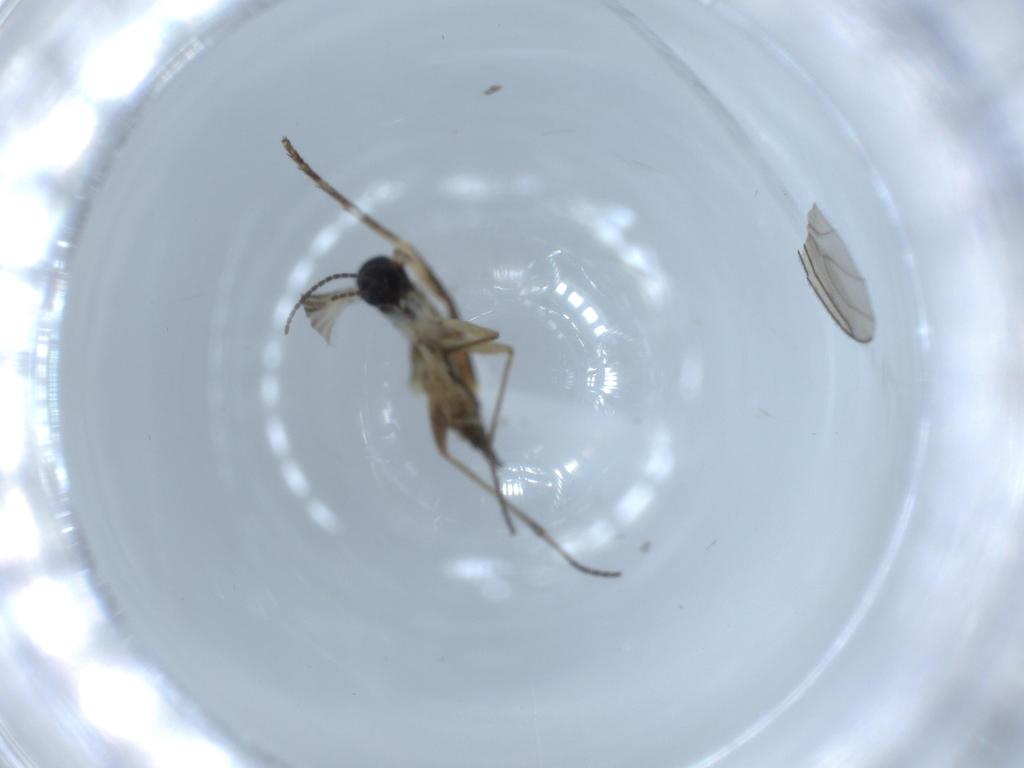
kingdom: Animalia
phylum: Arthropoda
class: Insecta
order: Diptera
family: Sciaridae
